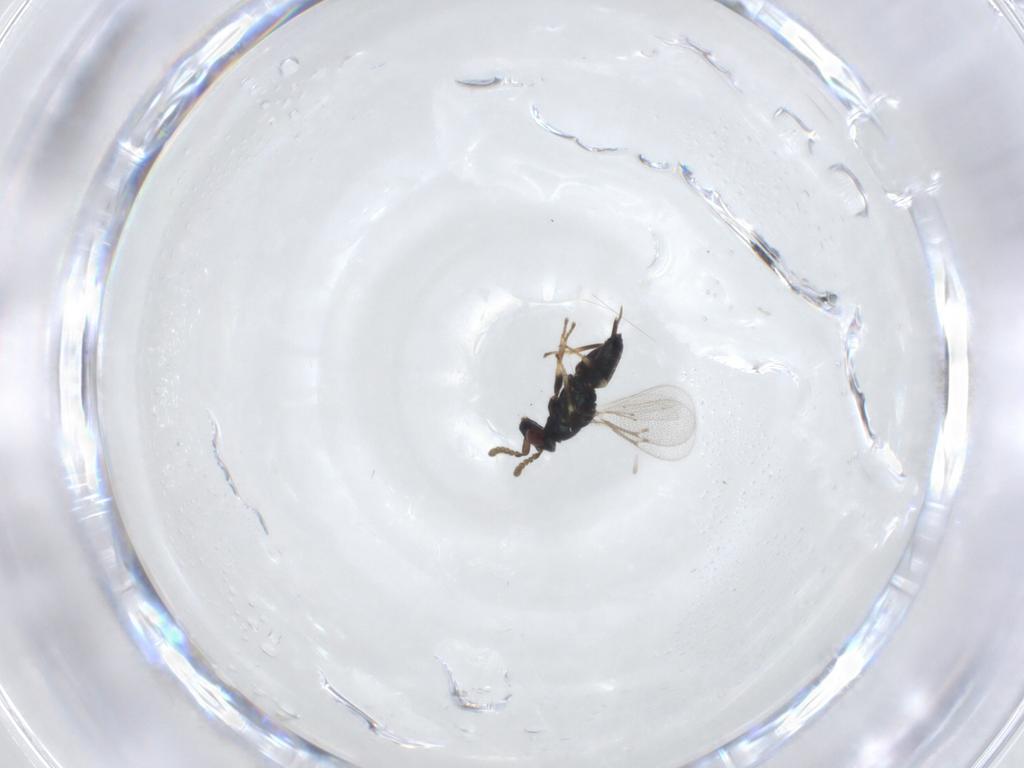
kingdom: Animalia
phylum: Arthropoda
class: Insecta
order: Hymenoptera
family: Eulophidae
